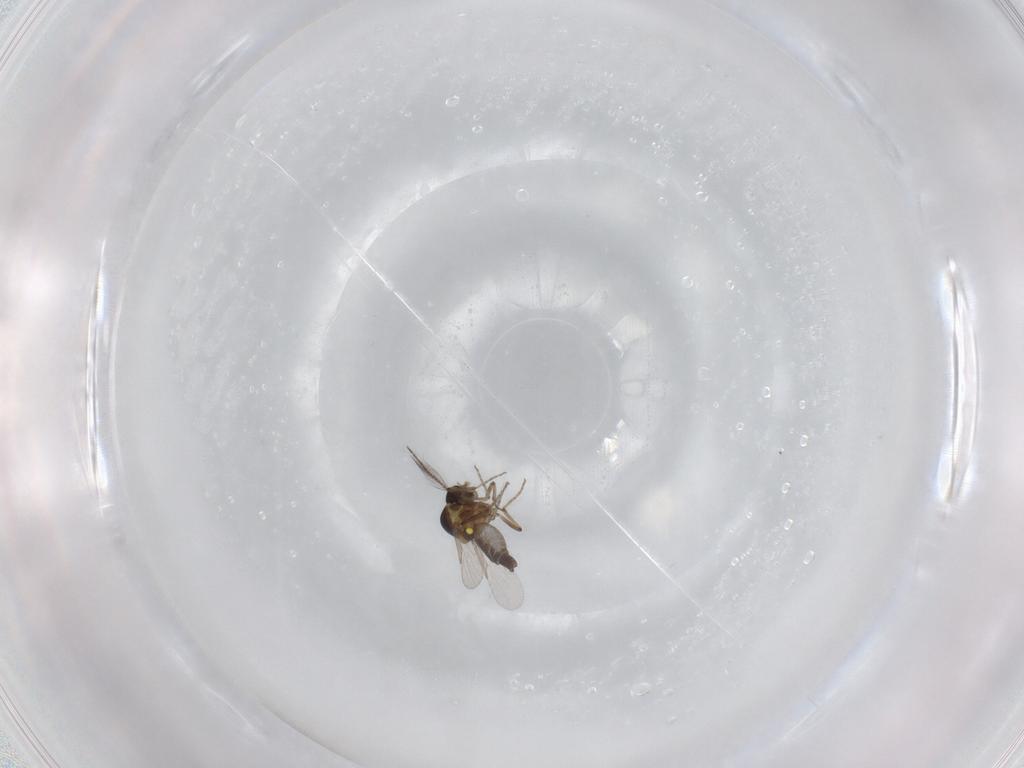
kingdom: Animalia
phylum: Arthropoda
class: Insecta
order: Diptera
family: Ceratopogonidae
